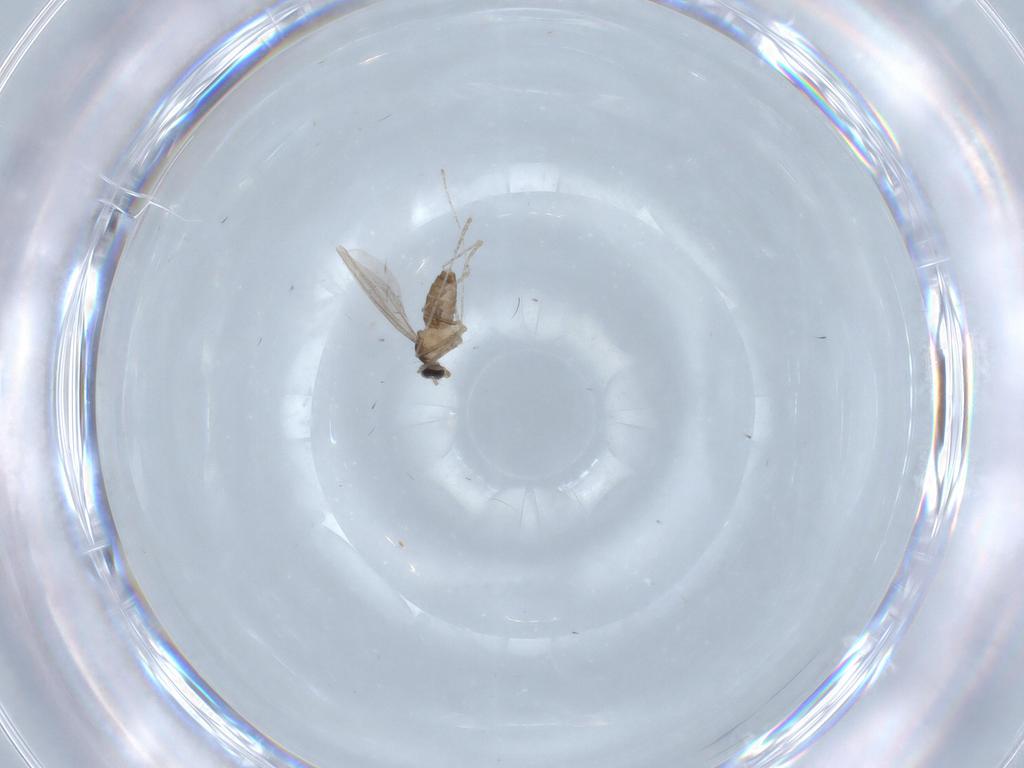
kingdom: Animalia
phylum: Arthropoda
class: Insecta
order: Diptera
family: Cecidomyiidae
